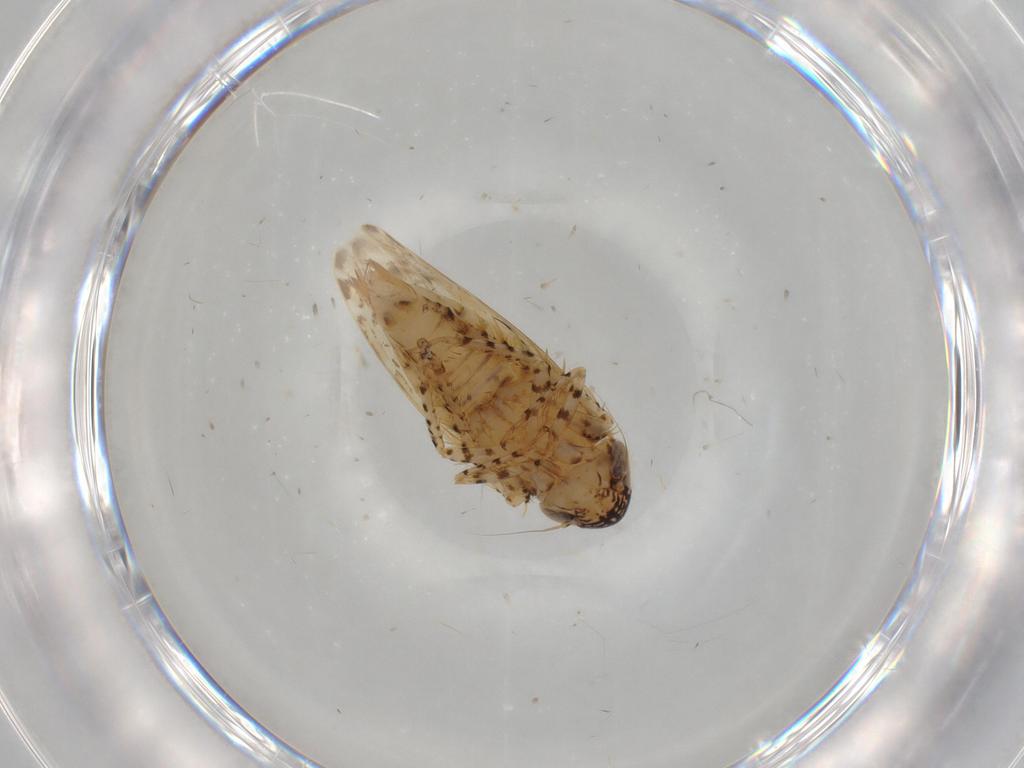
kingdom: Animalia
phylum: Arthropoda
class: Insecta
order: Hemiptera
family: Cicadellidae
